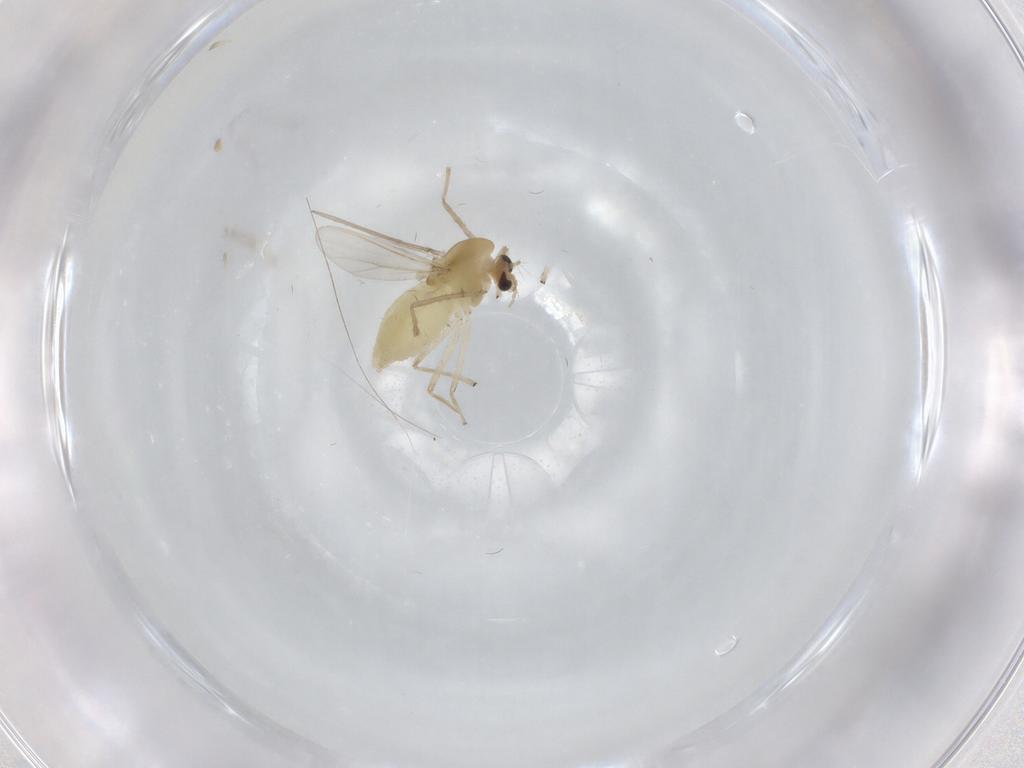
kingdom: Animalia
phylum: Arthropoda
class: Insecta
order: Diptera
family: Chironomidae
